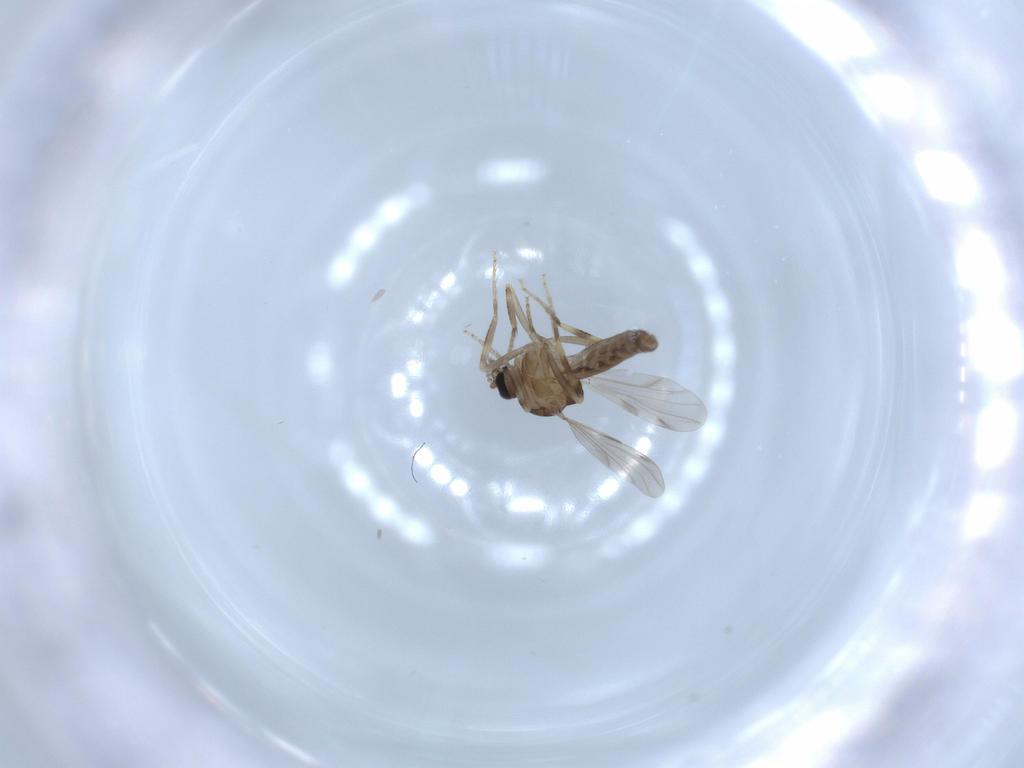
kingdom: Animalia
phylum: Arthropoda
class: Insecta
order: Diptera
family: Ceratopogonidae
